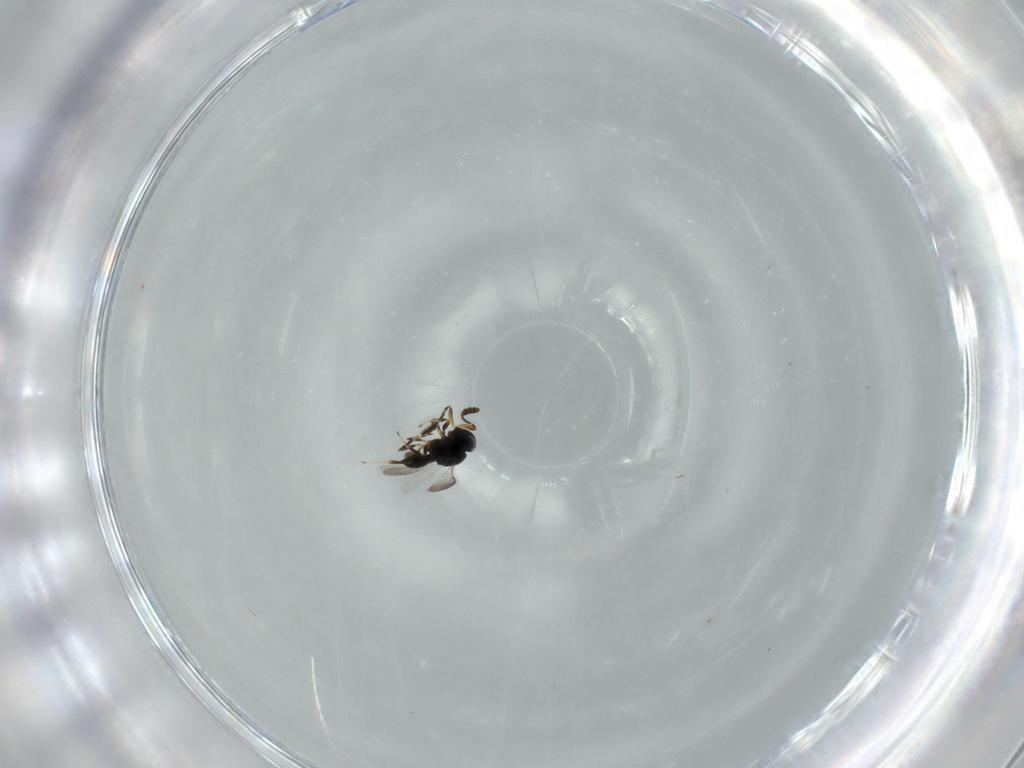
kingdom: Animalia
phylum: Arthropoda
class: Insecta
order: Hymenoptera
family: Scelionidae
